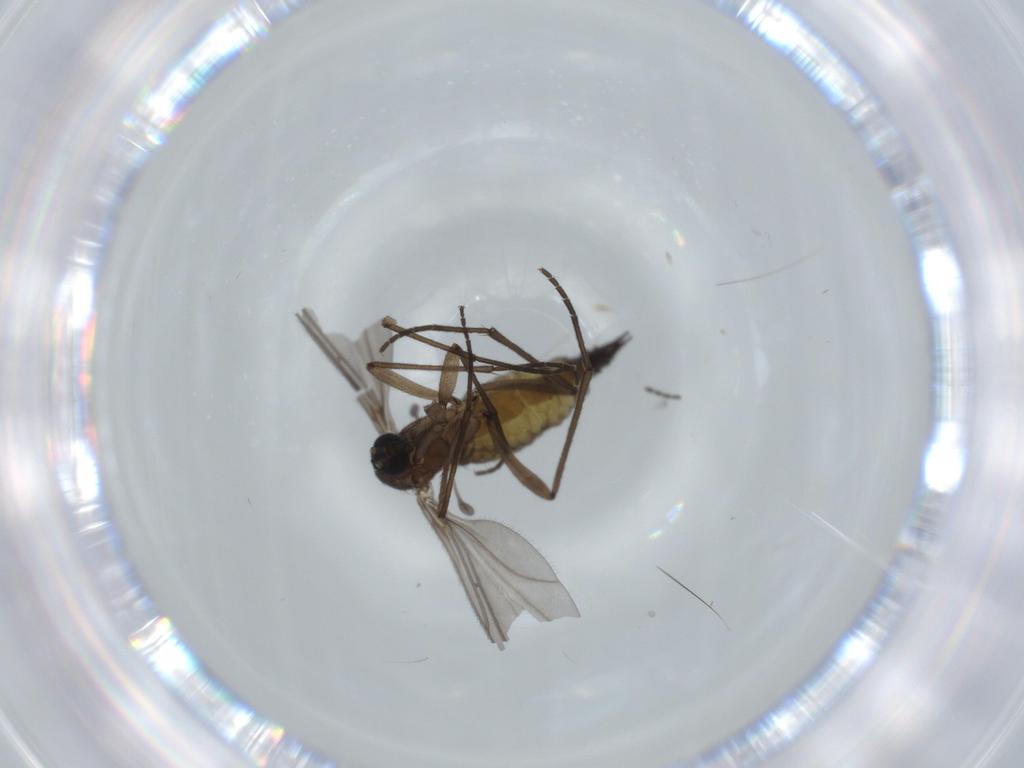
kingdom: Animalia
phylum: Arthropoda
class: Insecta
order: Diptera
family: Sciaridae
